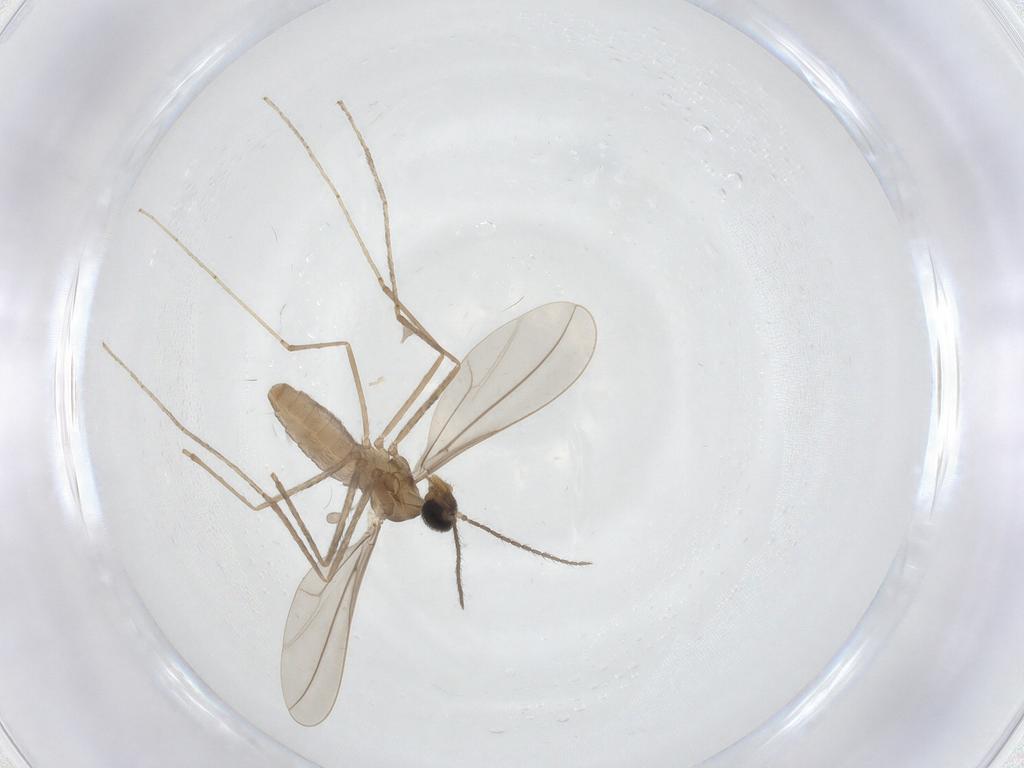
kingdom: Animalia
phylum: Arthropoda
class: Insecta
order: Diptera
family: Cecidomyiidae
